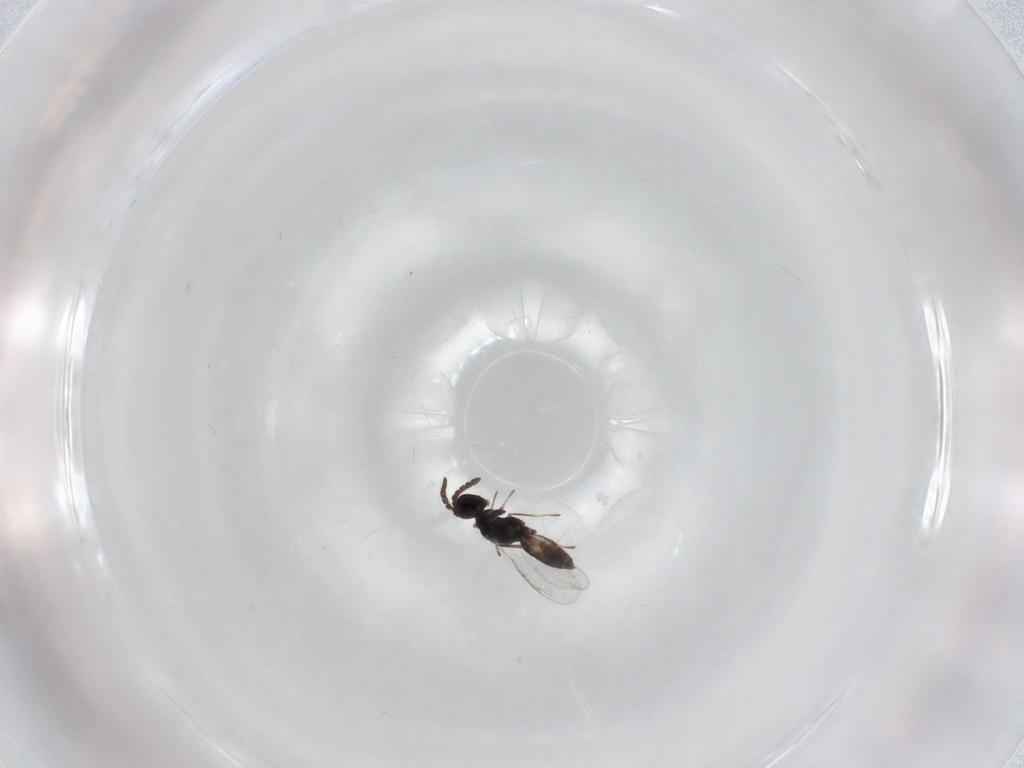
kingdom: Animalia
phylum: Arthropoda
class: Insecta
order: Hymenoptera
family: Eulophidae
